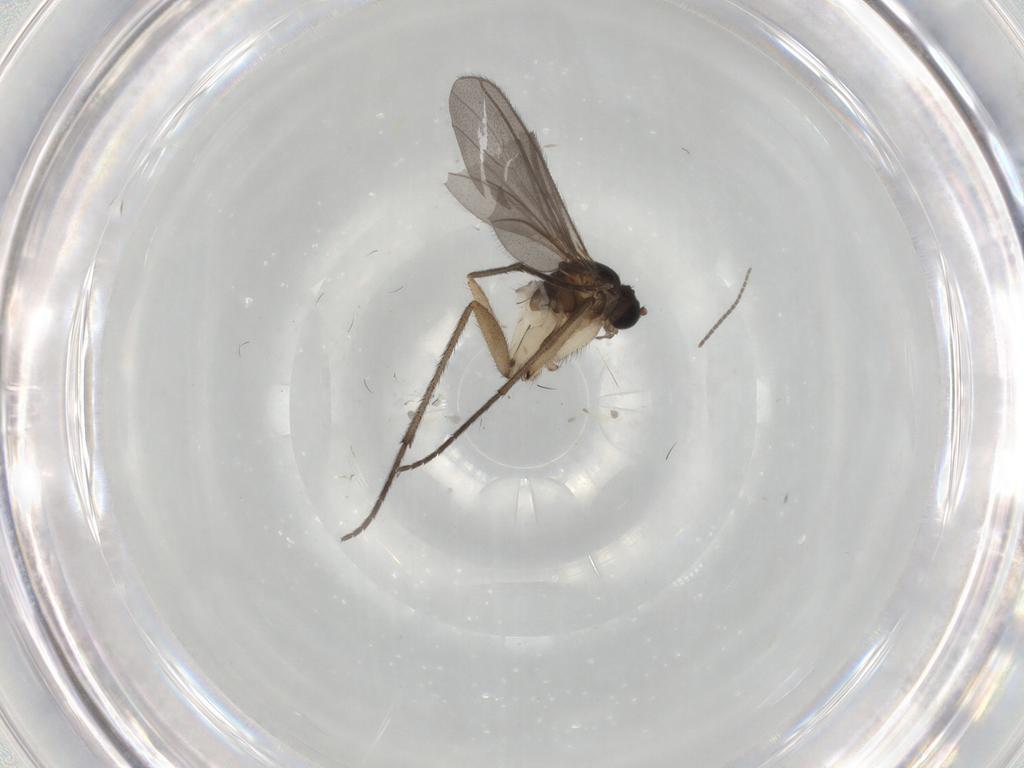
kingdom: Animalia
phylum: Arthropoda
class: Insecta
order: Diptera
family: Sciaridae
